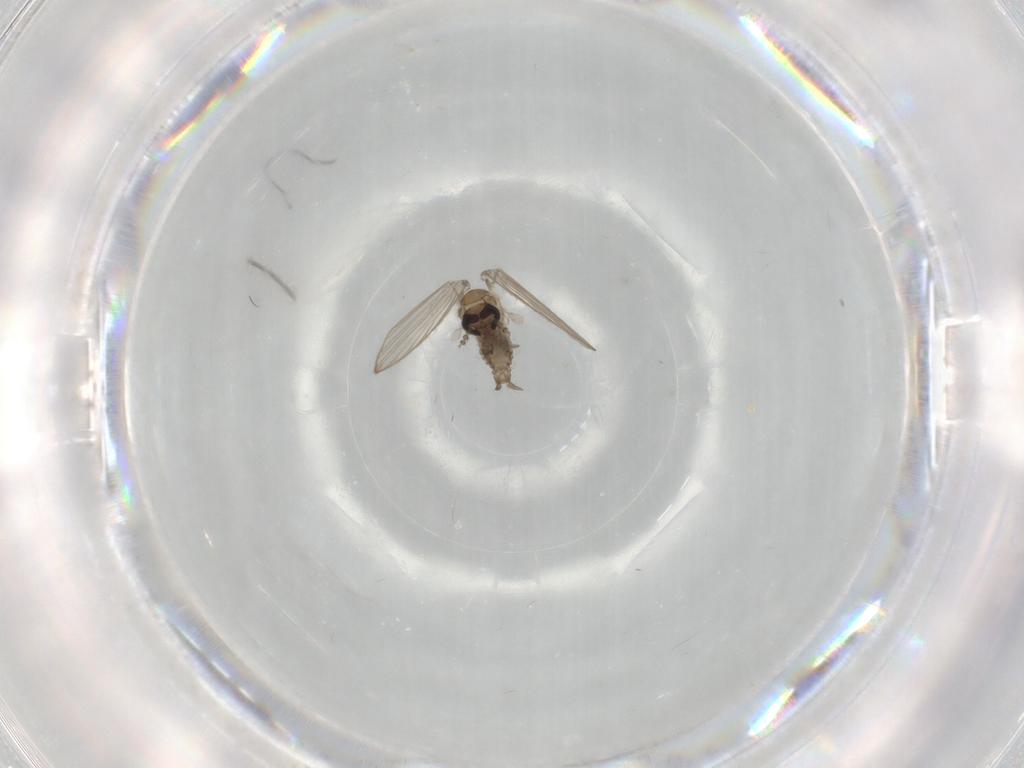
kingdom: Animalia
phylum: Arthropoda
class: Insecta
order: Diptera
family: Psychodidae
